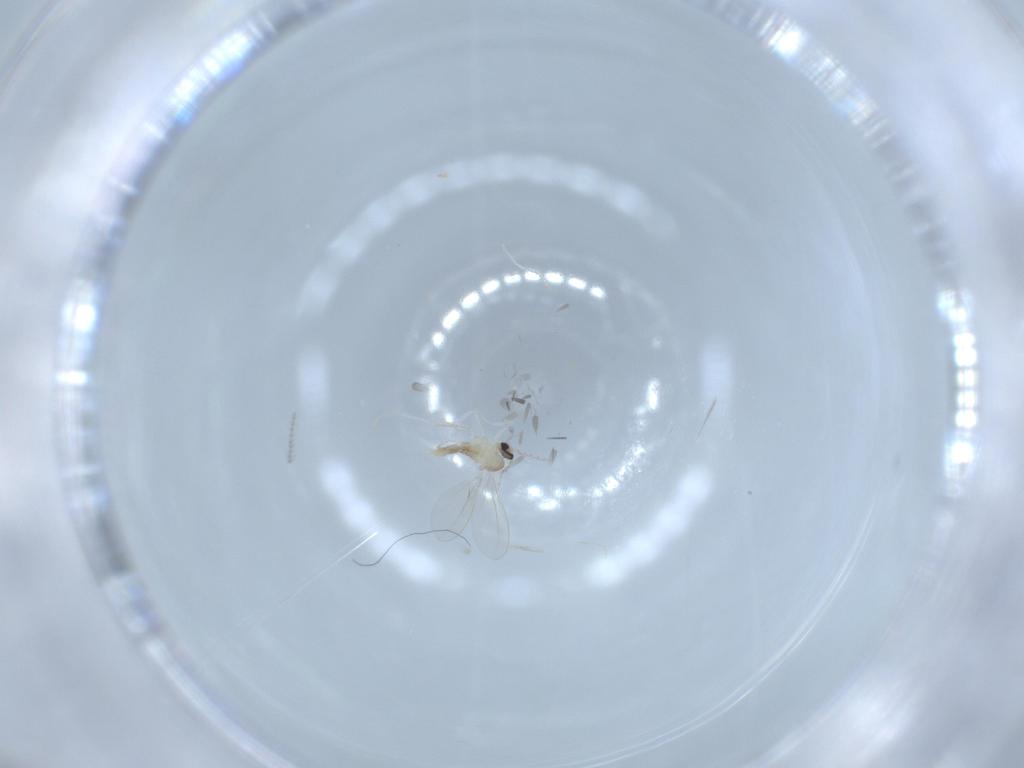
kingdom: Animalia
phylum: Arthropoda
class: Insecta
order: Diptera
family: Cecidomyiidae
